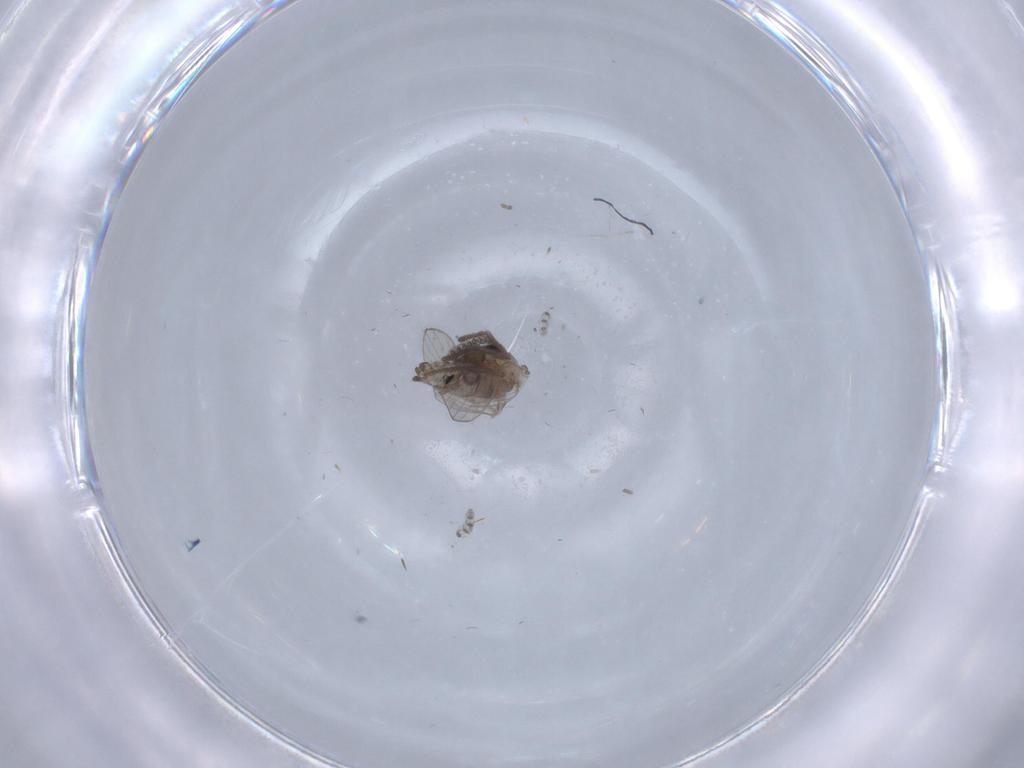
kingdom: Animalia
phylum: Arthropoda
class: Insecta
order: Diptera
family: Psychodidae
